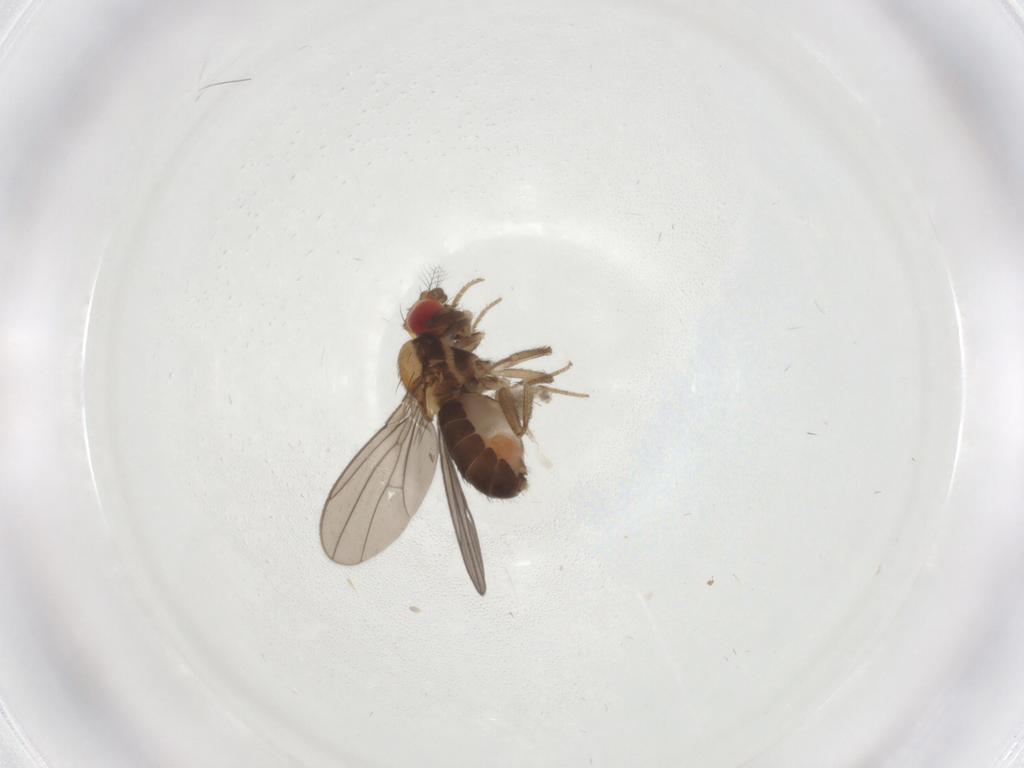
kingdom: Animalia
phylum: Arthropoda
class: Insecta
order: Diptera
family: Drosophilidae
